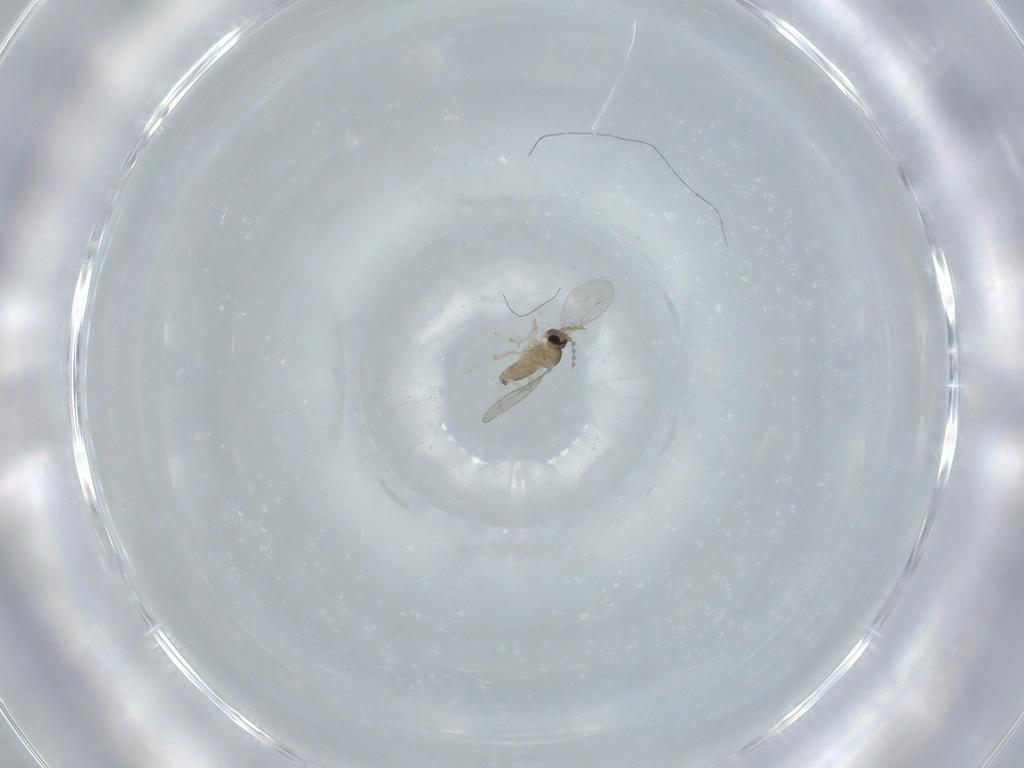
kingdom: Animalia
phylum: Arthropoda
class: Insecta
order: Diptera
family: Cecidomyiidae
